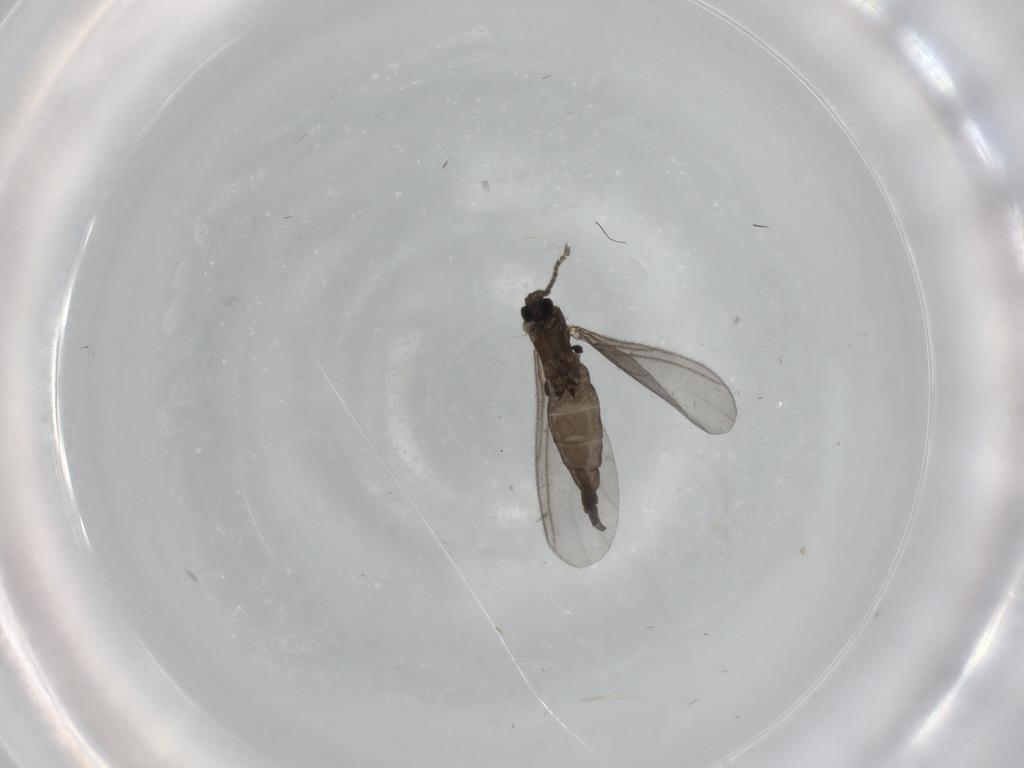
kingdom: Animalia
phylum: Arthropoda
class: Insecta
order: Diptera
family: Sciaridae
